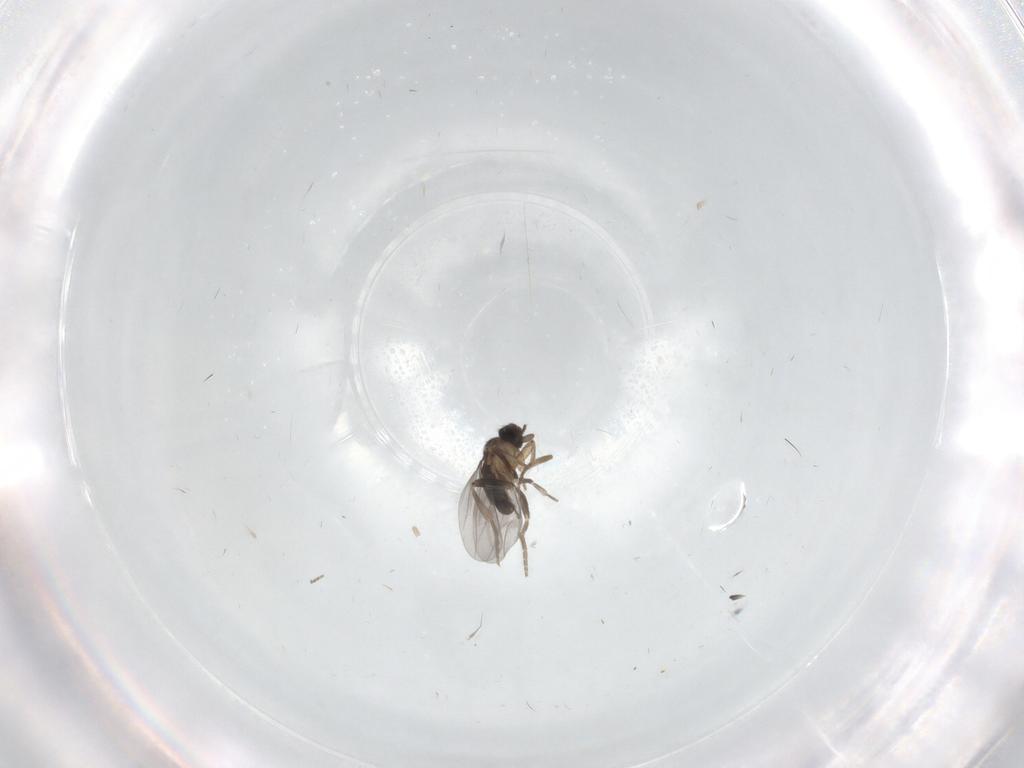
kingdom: Animalia
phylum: Arthropoda
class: Insecta
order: Diptera
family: Sciaridae
